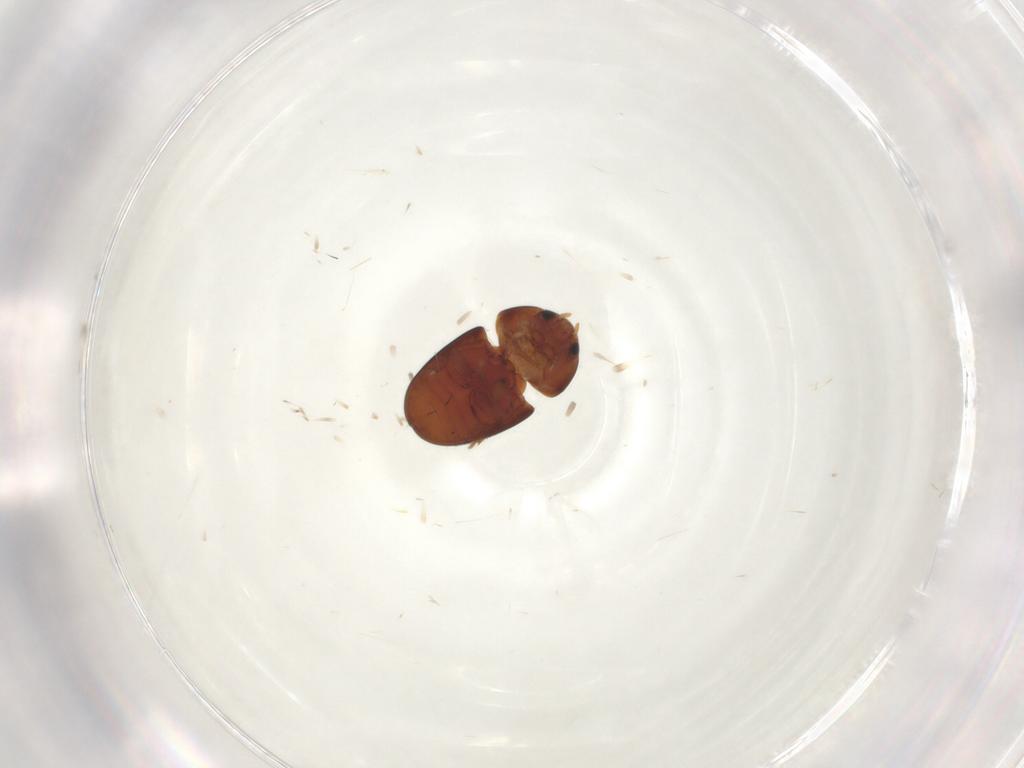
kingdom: Animalia
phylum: Arthropoda
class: Insecta
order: Coleoptera
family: Phalacridae
